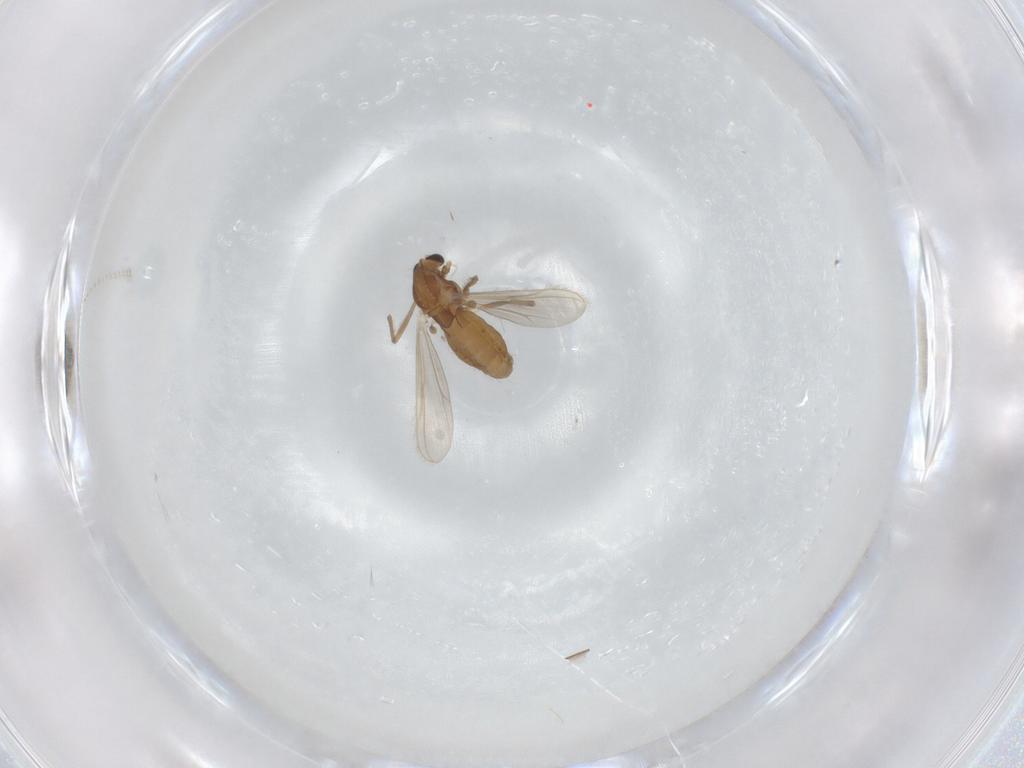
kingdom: Animalia
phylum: Arthropoda
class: Insecta
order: Diptera
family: Chironomidae
